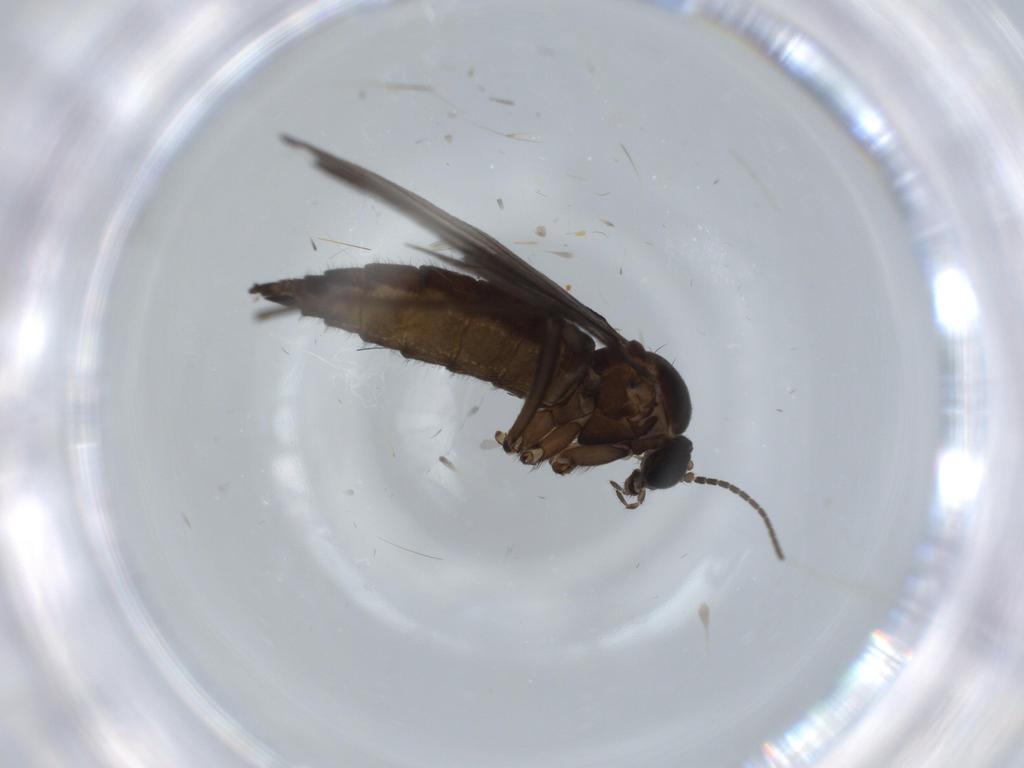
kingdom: Animalia
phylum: Arthropoda
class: Insecta
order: Diptera
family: Sciaridae
